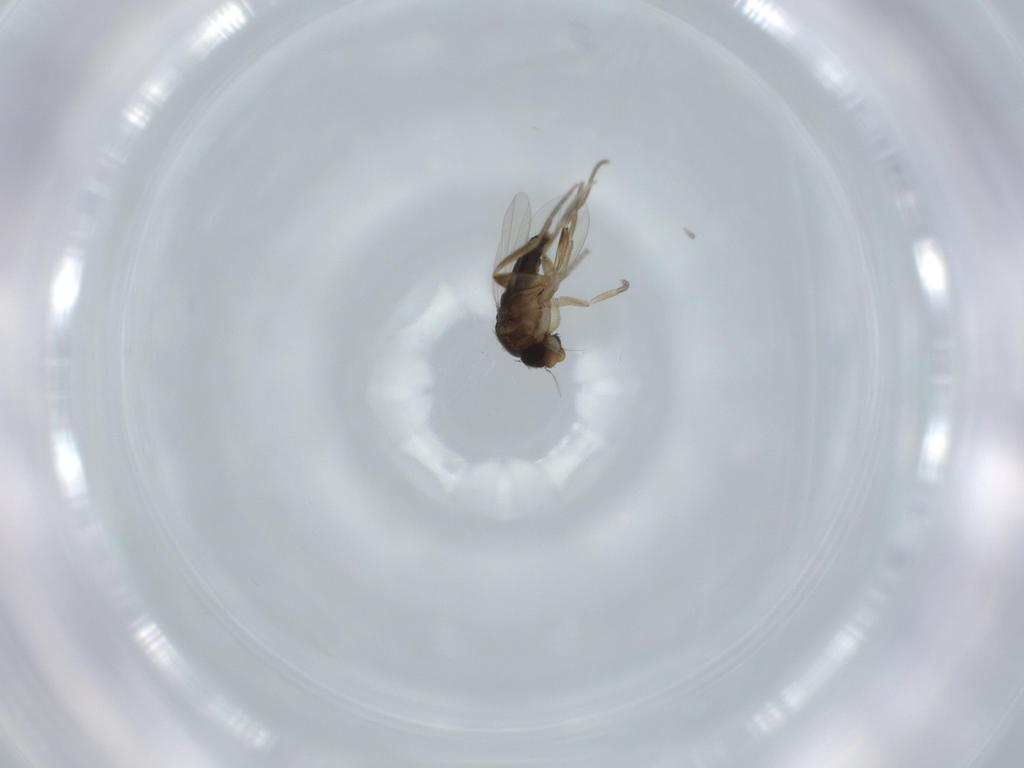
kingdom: Animalia
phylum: Arthropoda
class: Insecta
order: Diptera
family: Phoridae
